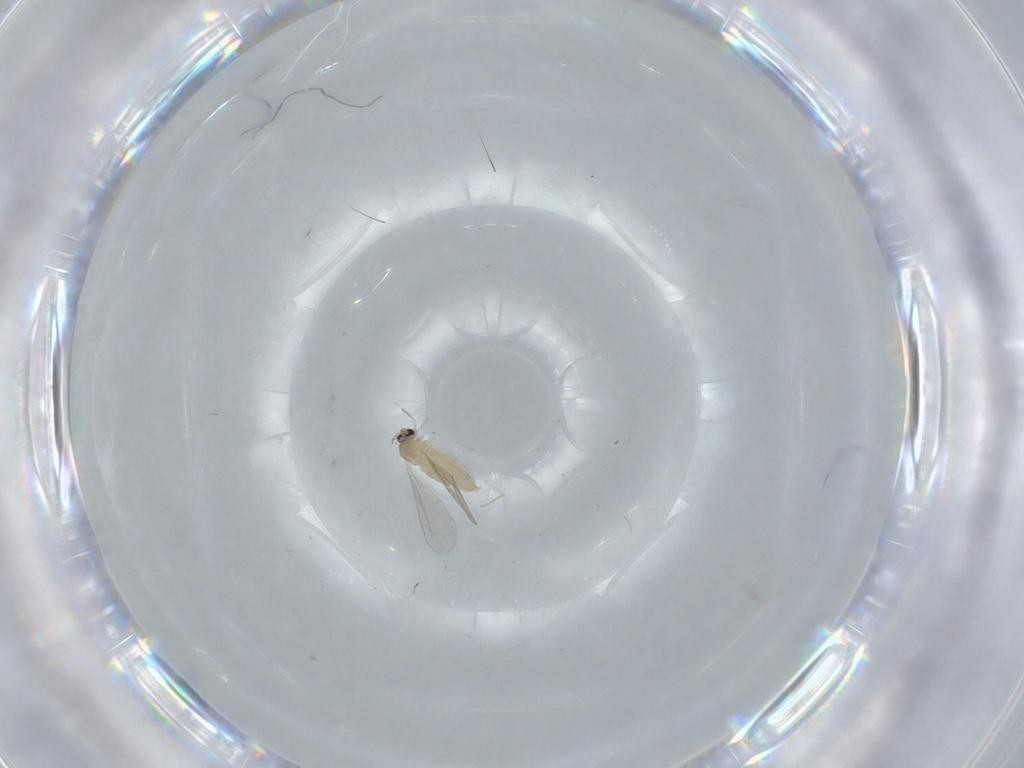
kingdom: Animalia
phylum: Arthropoda
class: Insecta
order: Diptera
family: Cecidomyiidae
